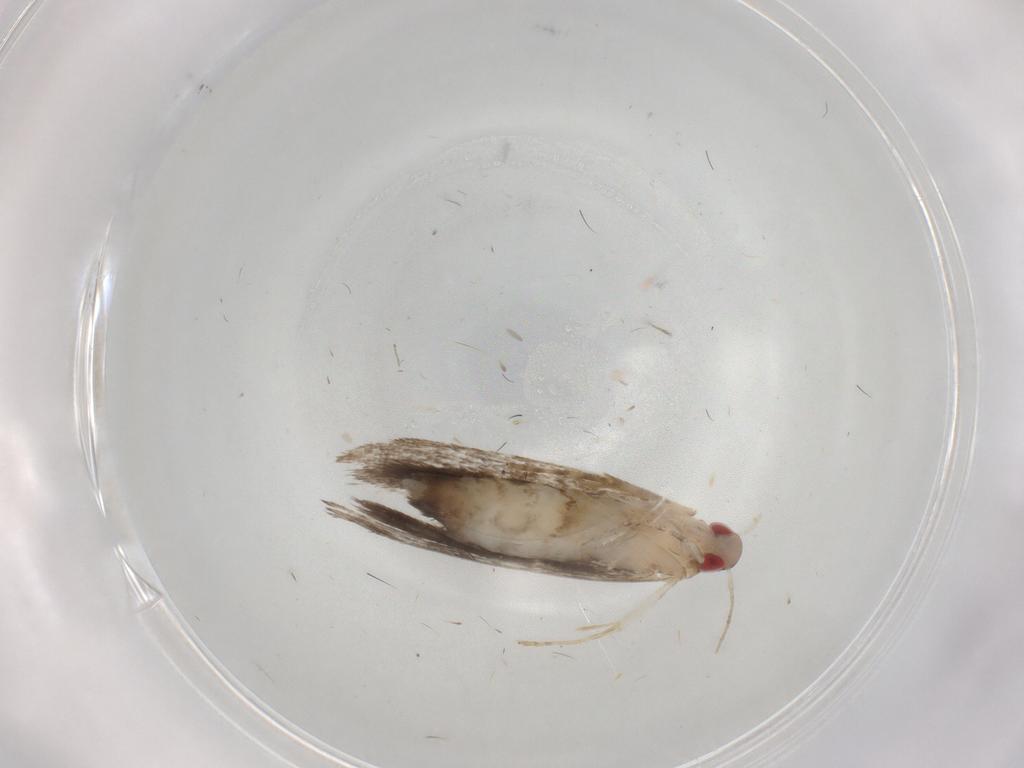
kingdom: Animalia
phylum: Arthropoda
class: Insecta
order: Lepidoptera
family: Gelechiidae
